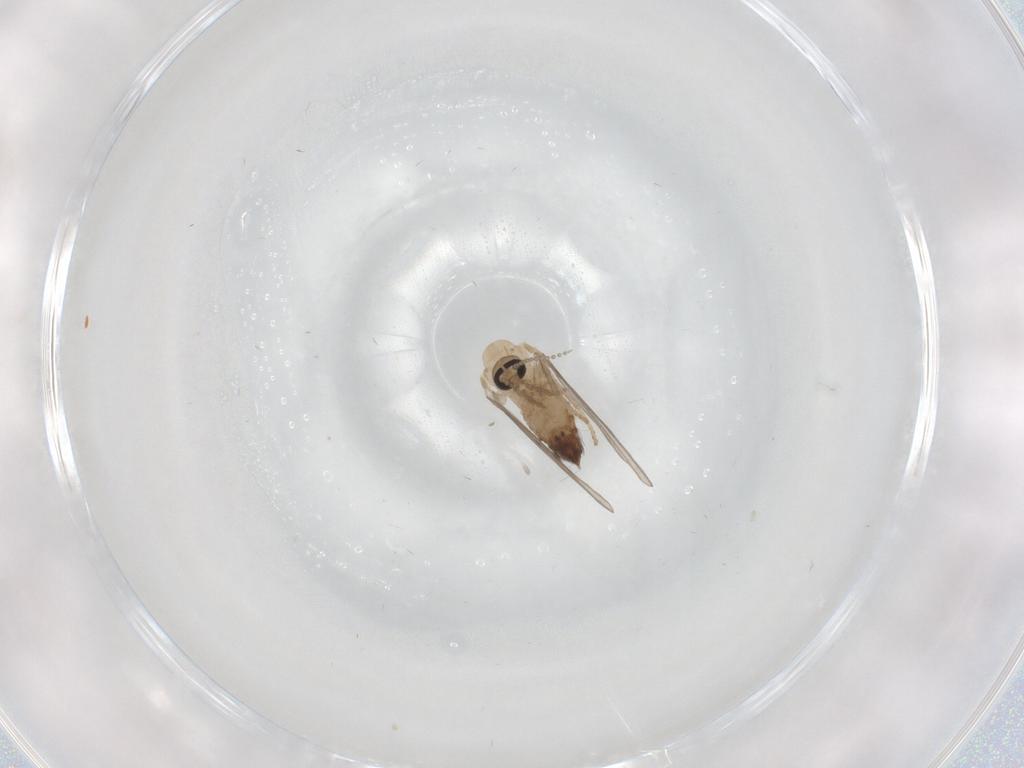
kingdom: Animalia
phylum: Arthropoda
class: Insecta
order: Diptera
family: Psychodidae
